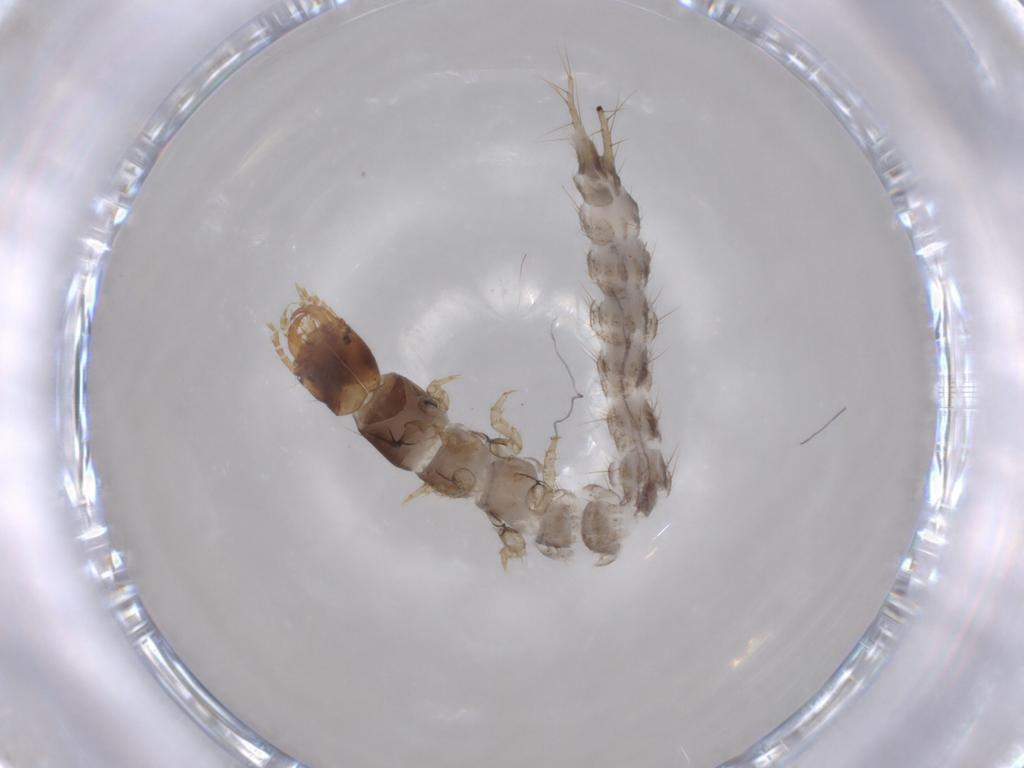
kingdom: Animalia
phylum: Arthropoda
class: Insecta
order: Coleoptera
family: Carabidae
